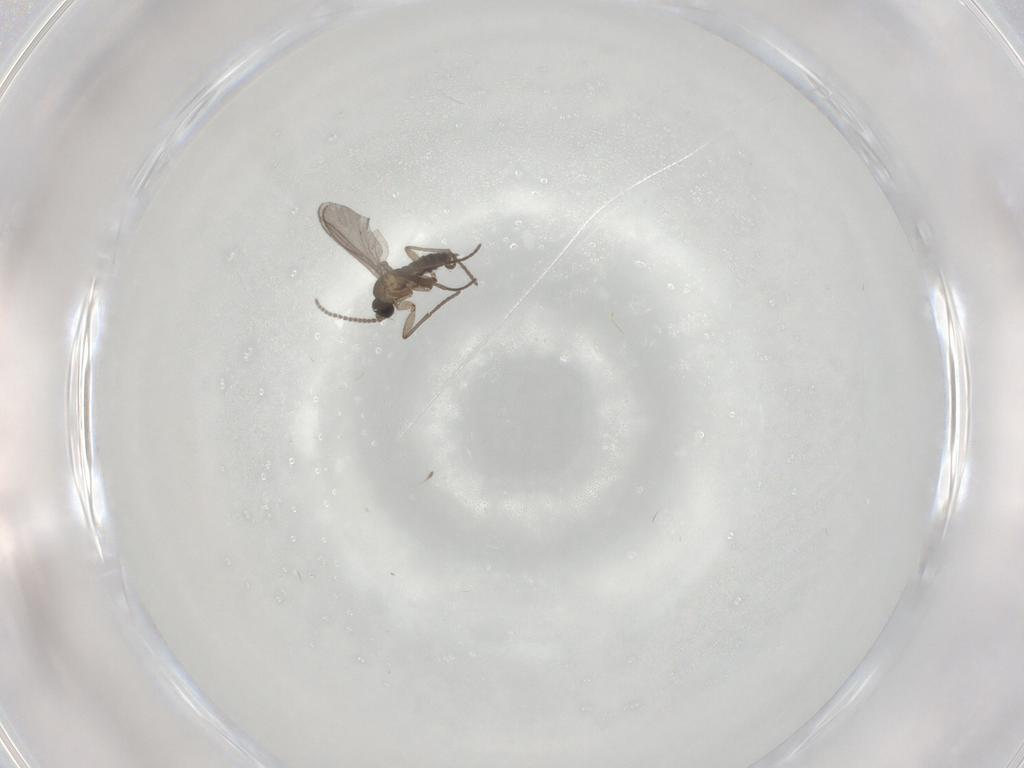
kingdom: Animalia
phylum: Arthropoda
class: Insecta
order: Diptera
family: Sciaridae
